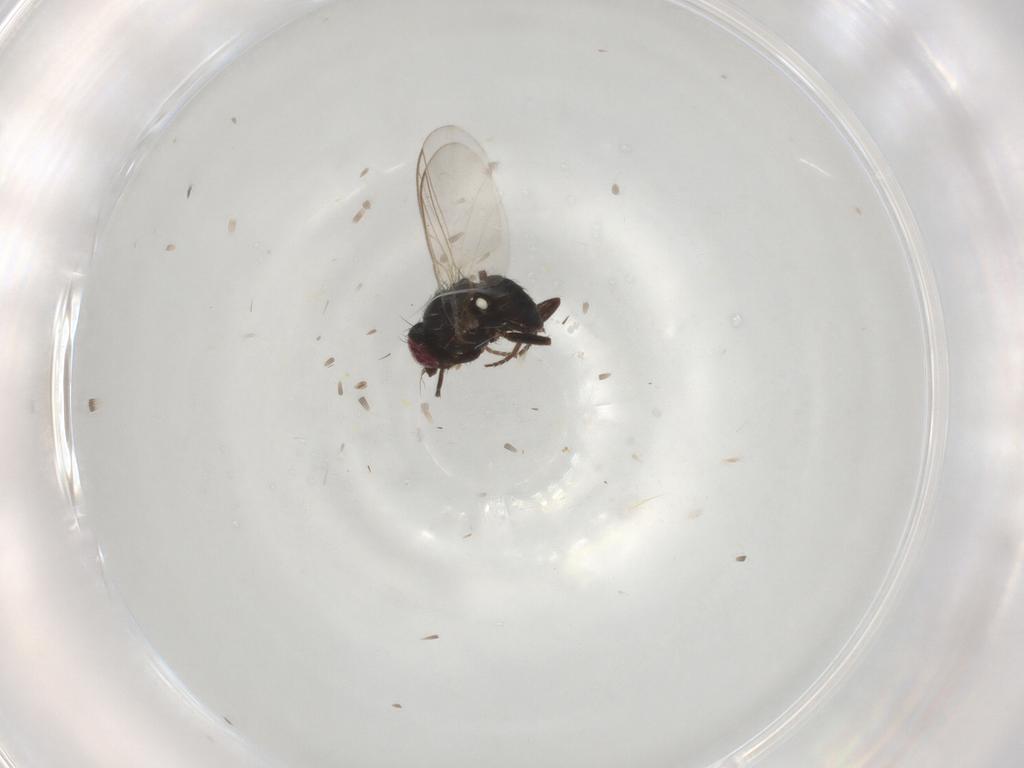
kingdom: Animalia
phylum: Arthropoda
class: Insecta
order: Diptera
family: Agromyzidae
